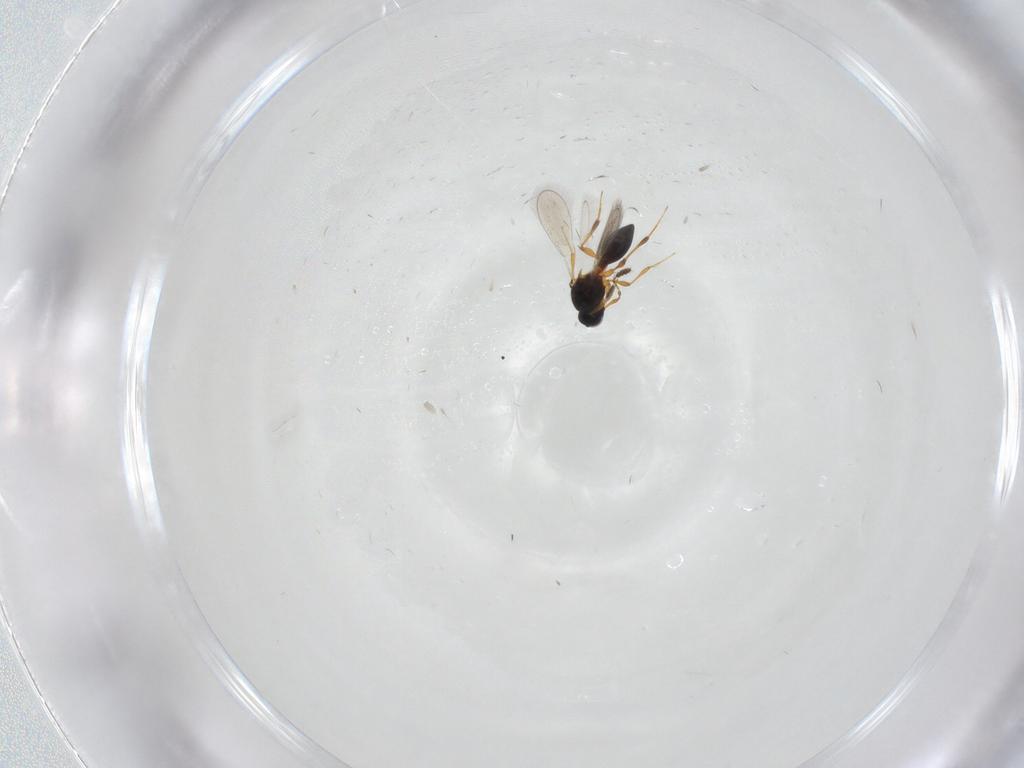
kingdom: Animalia
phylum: Arthropoda
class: Insecta
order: Hymenoptera
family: Platygastridae
